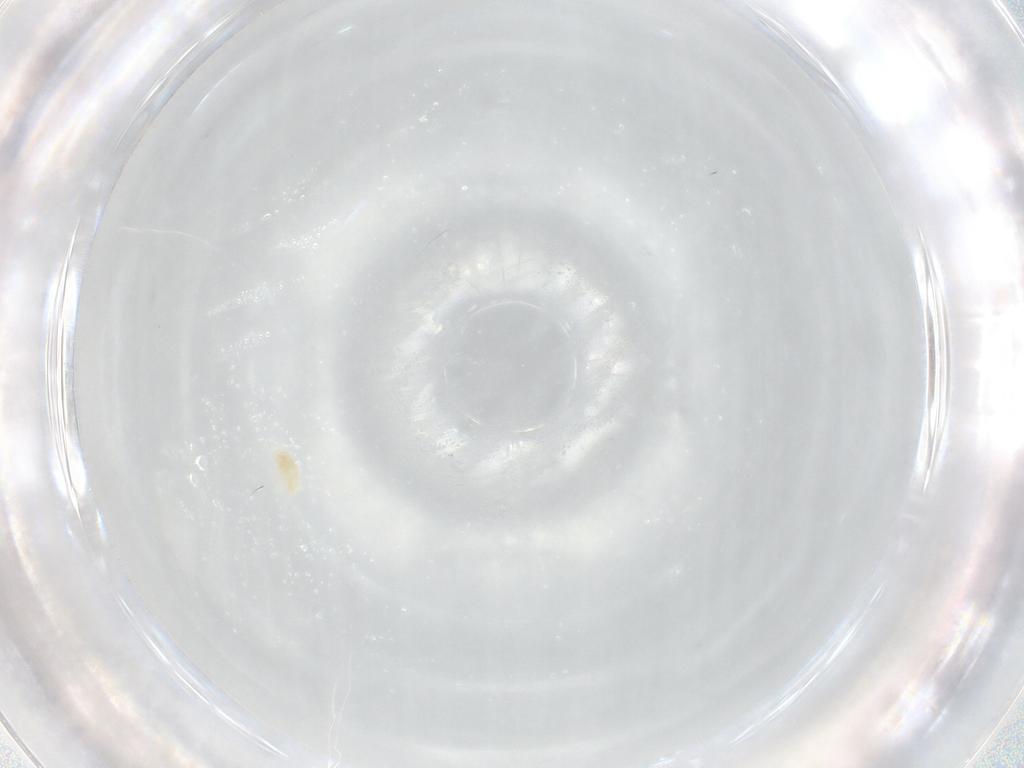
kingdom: Animalia
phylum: Arthropoda
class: Arachnida
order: Trombidiformes
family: Eupodidae
